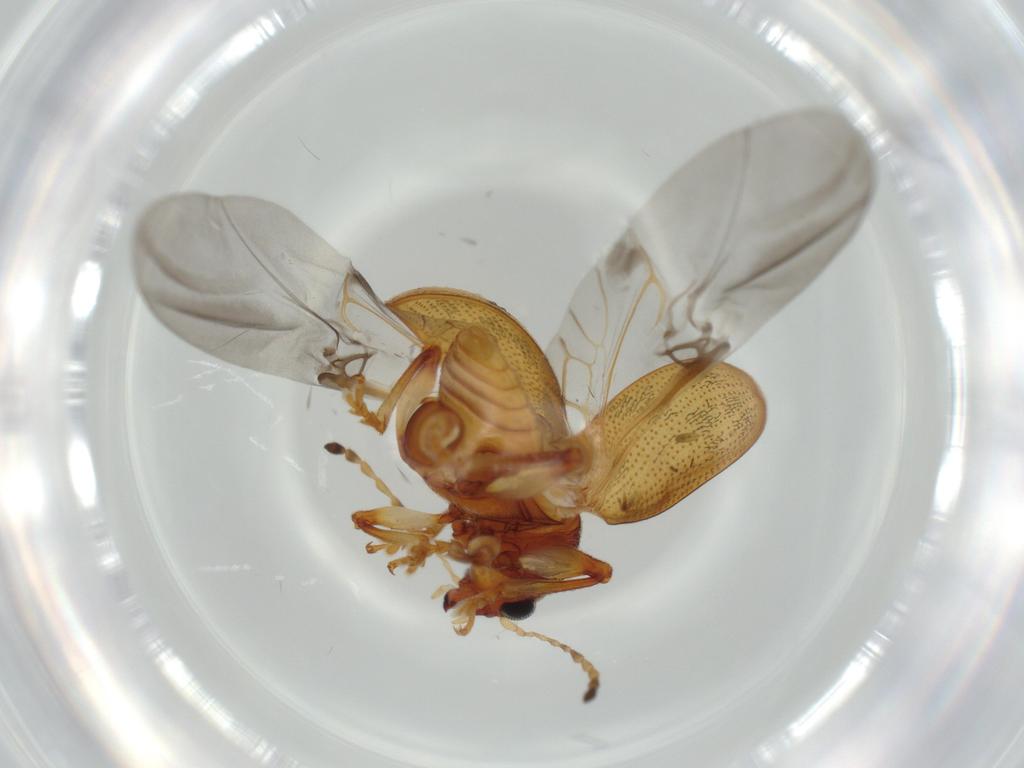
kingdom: Animalia
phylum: Arthropoda
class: Insecta
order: Coleoptera
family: Chrysomelidae
